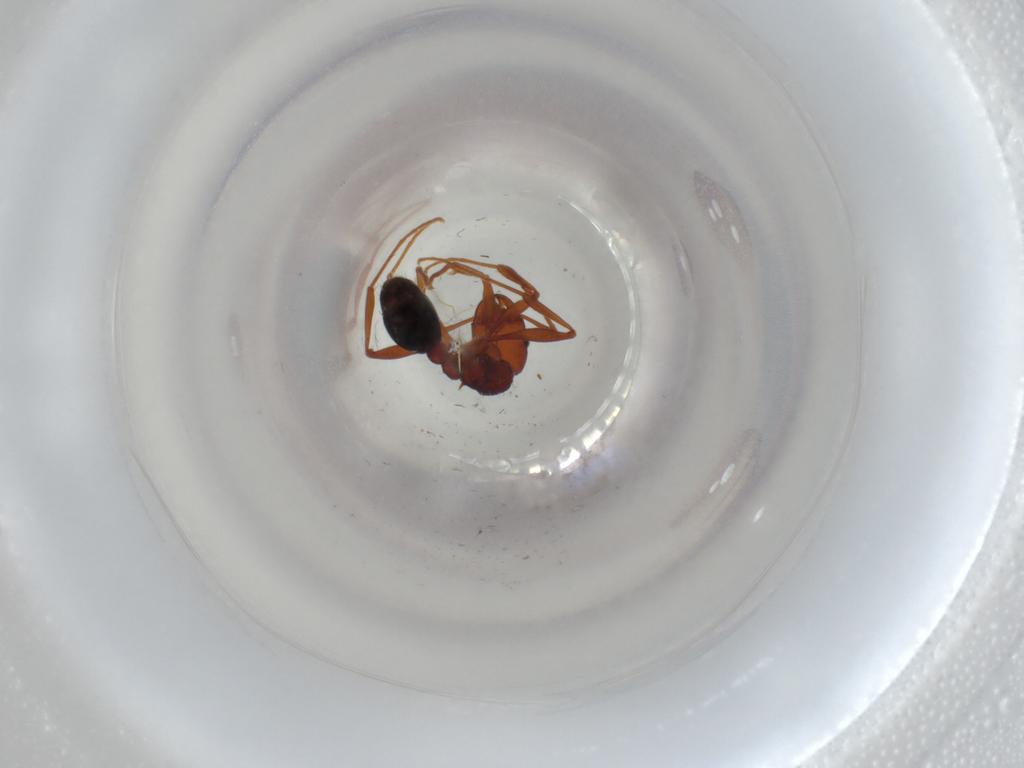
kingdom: Animalia
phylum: Arthropoda
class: Insecta
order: Hymenoptera
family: Formicidae
